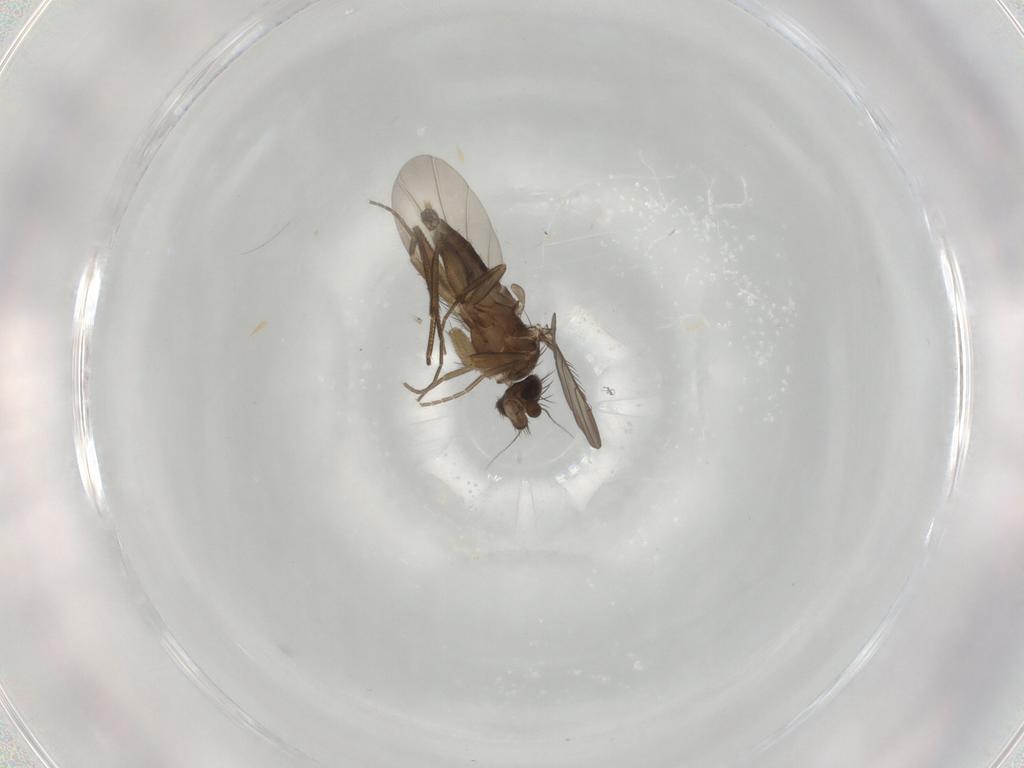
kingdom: Animalia
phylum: Arthropoda
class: Insecta
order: Diptera
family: Phoridae
